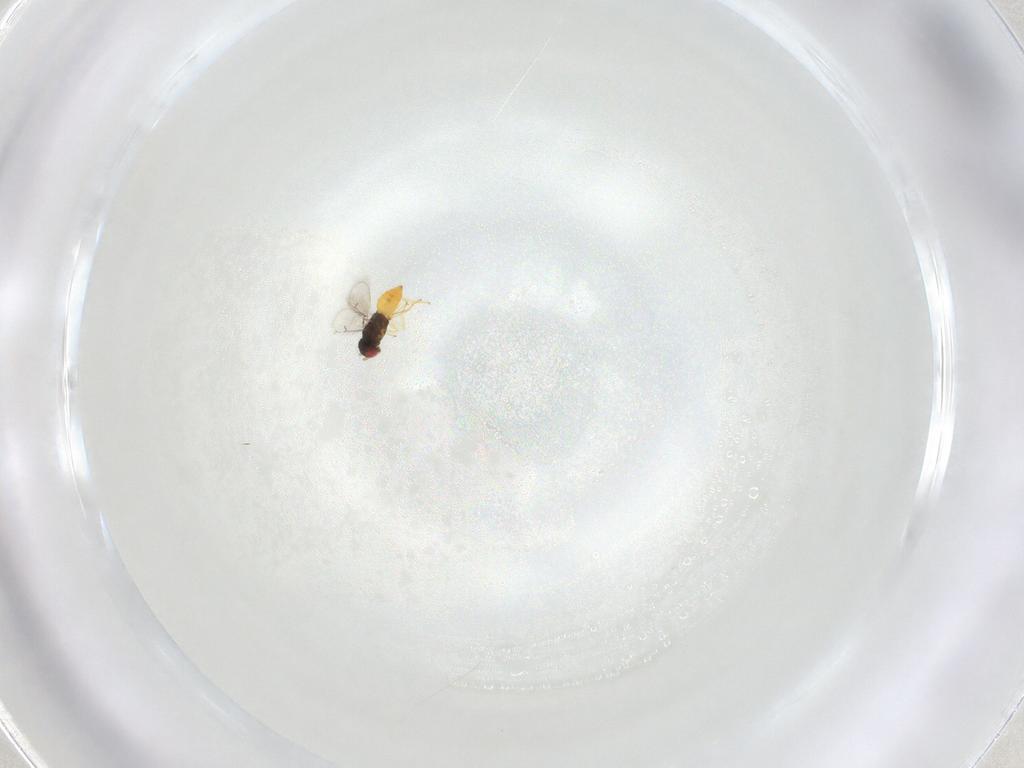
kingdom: Animalia
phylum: Arthropoda
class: Insecta
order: Hymenoptera
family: Eulophidae
